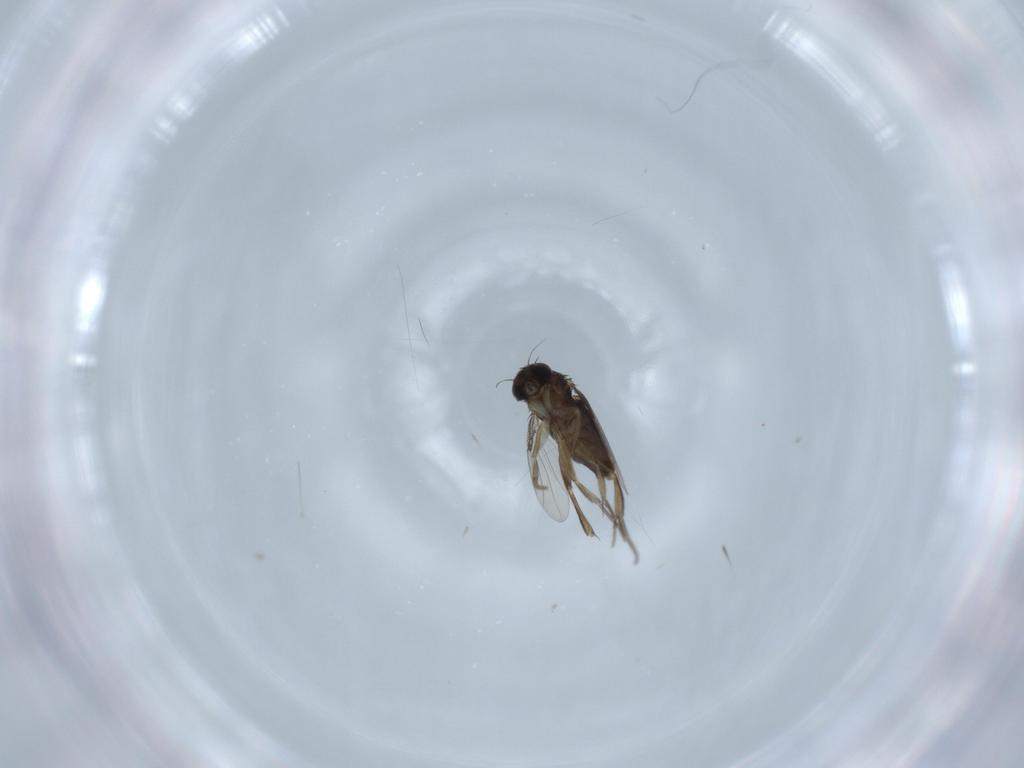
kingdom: Animalia
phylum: Arthropoda
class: Insecta
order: Diptera
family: Phoridae
